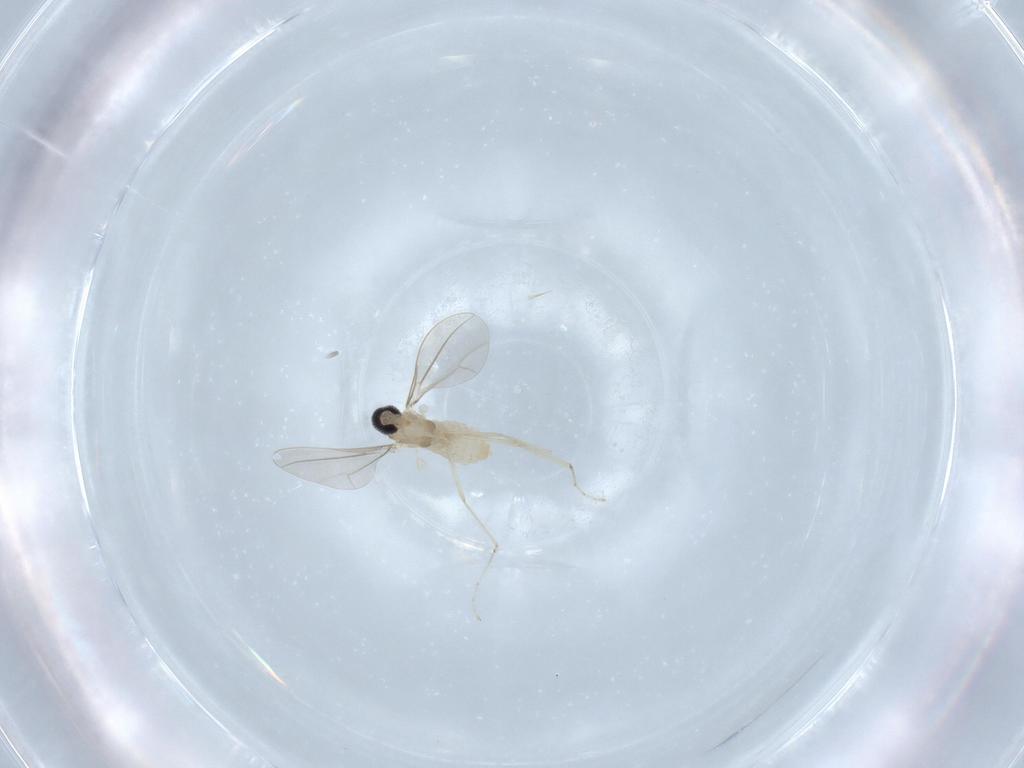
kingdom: Animalia
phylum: Arthropoda
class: Insecta
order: Diptera
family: Cecidomyiidae
